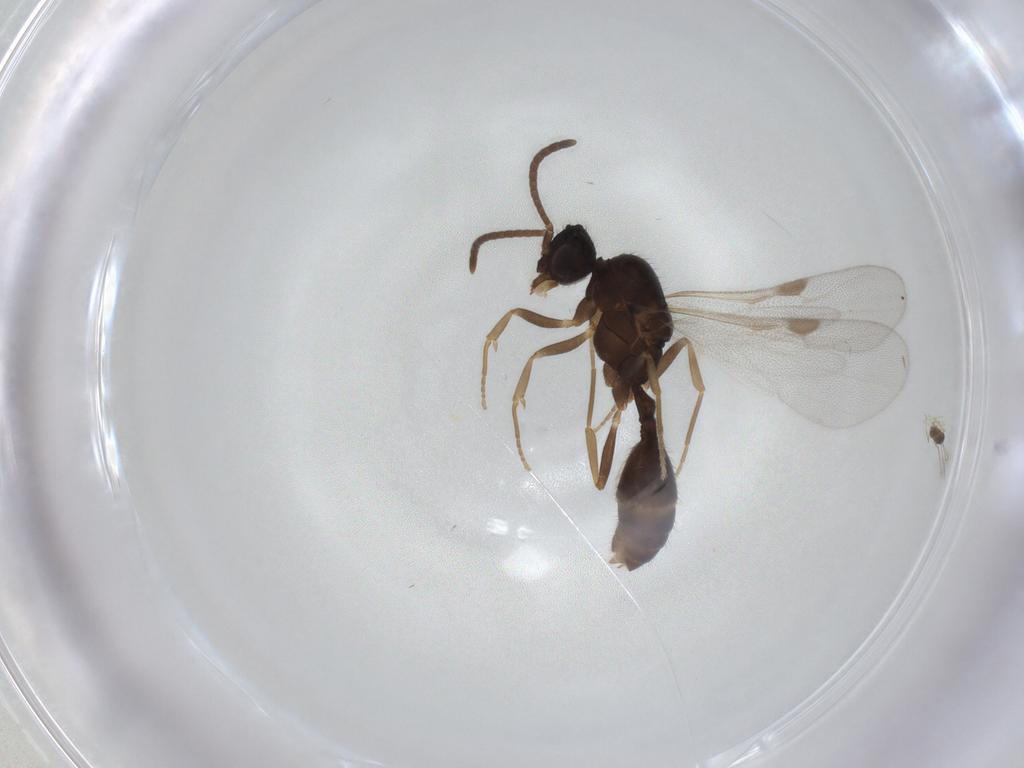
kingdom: Animalia
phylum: Arthropoda
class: Insecta
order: Hymenoptera
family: Formicidae
